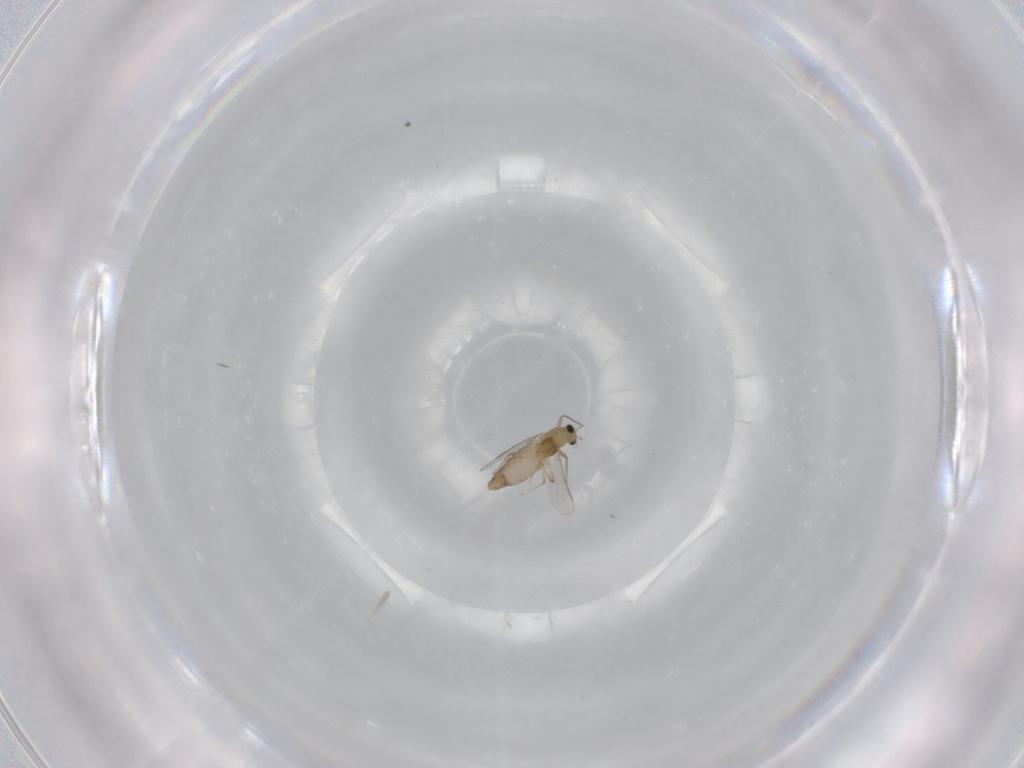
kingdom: Animalia
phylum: Arthropoda
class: Insecta
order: Diptera
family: Chironomidae
